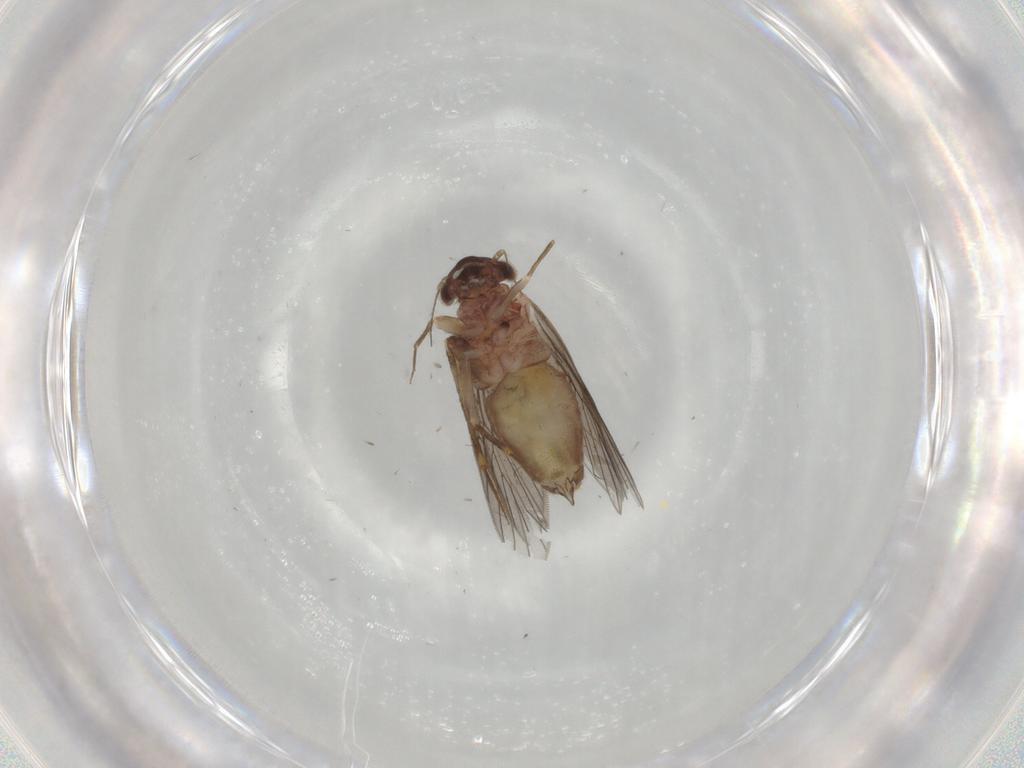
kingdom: Animalia
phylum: Arthropoda
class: Insecta
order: Psocodea
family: Lepidopsocidae
